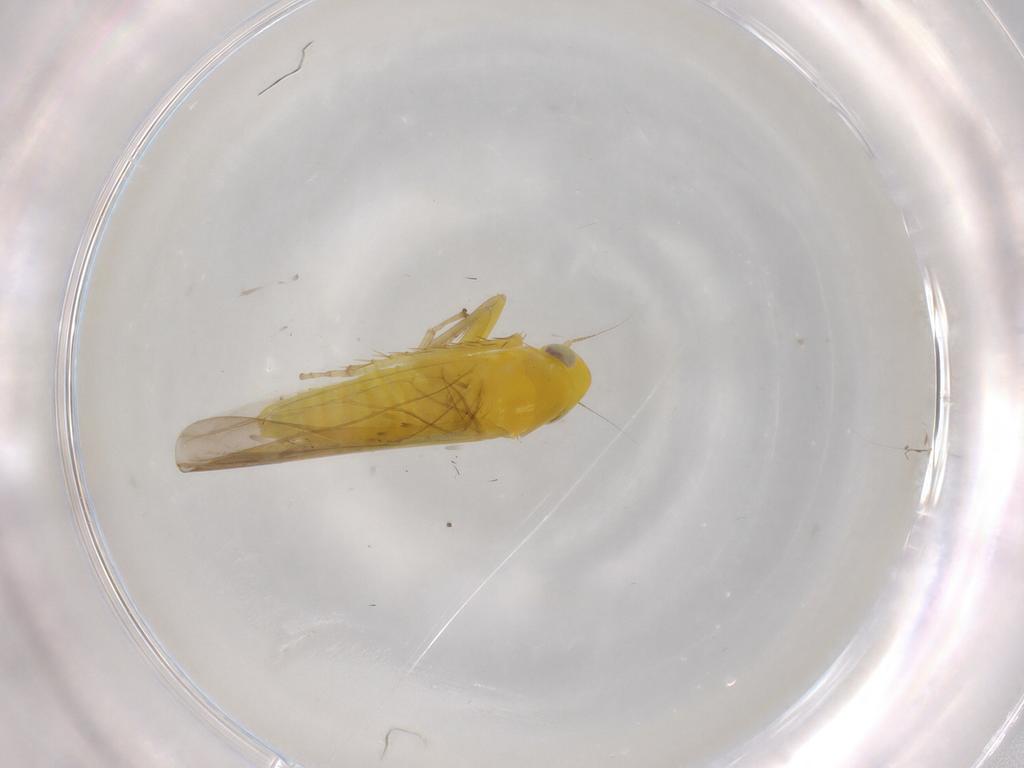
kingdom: Animalia
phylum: Arthropoda
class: Insecta
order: Hemiptera
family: Cicadellidae
